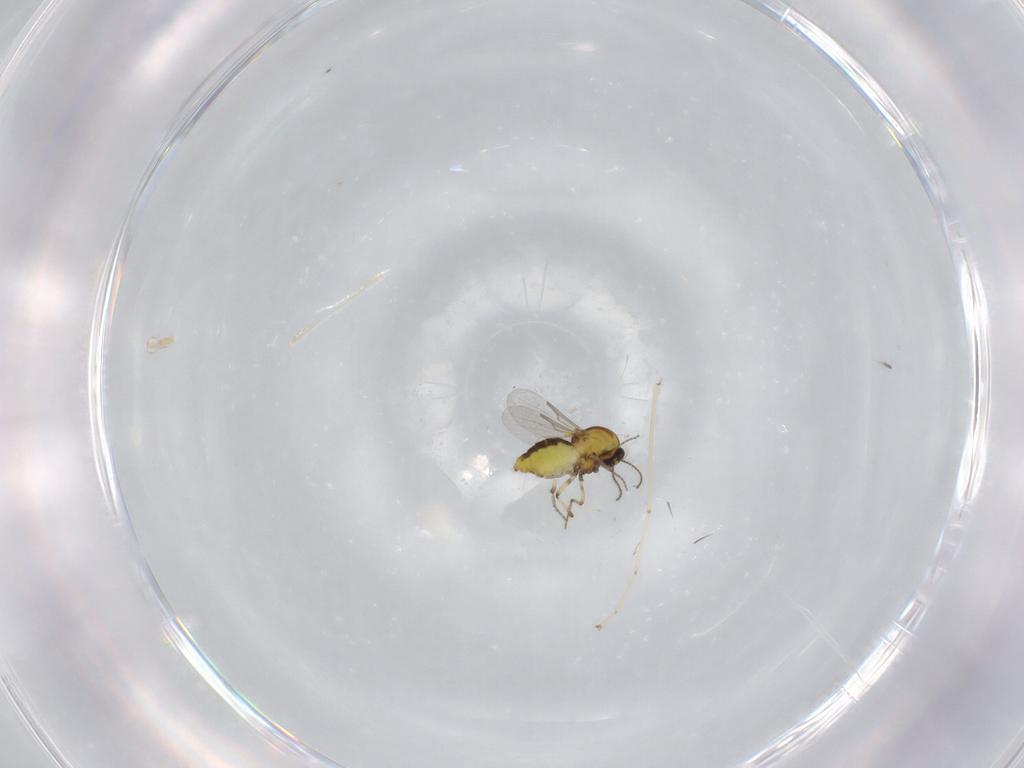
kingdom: Animalia
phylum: Arthropoda
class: Insecta
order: Diptera
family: Ceratopogonidae
